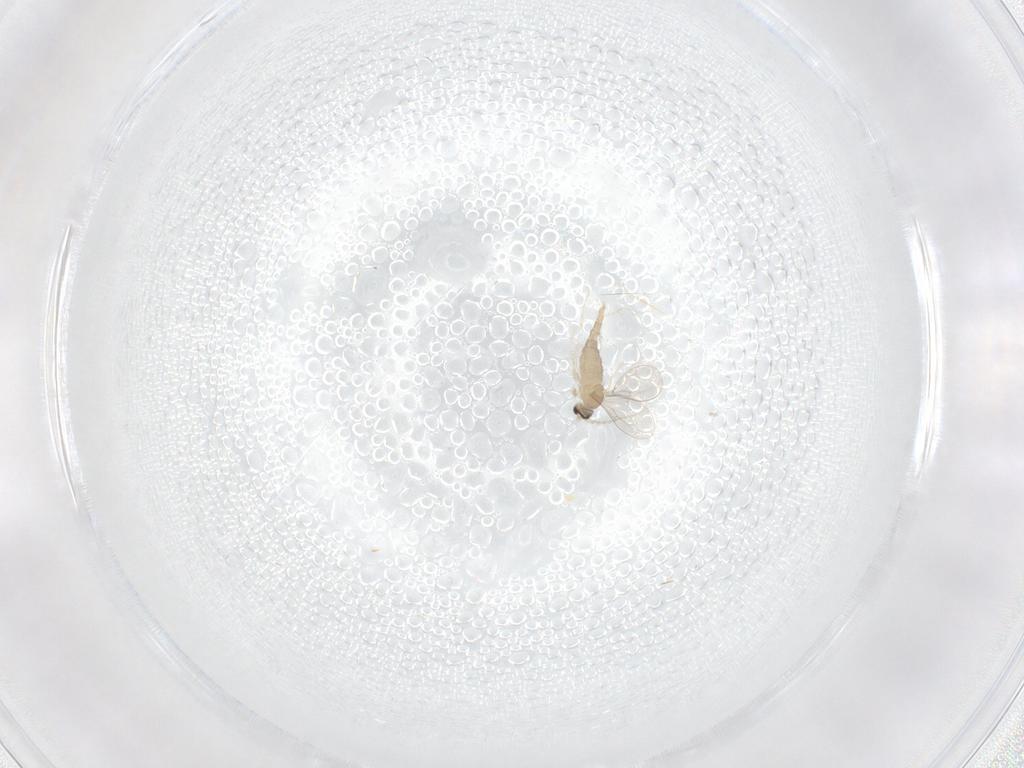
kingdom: Animalia
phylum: Arthropoda
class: Insecta
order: Diptera
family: Cecidomyiidae
